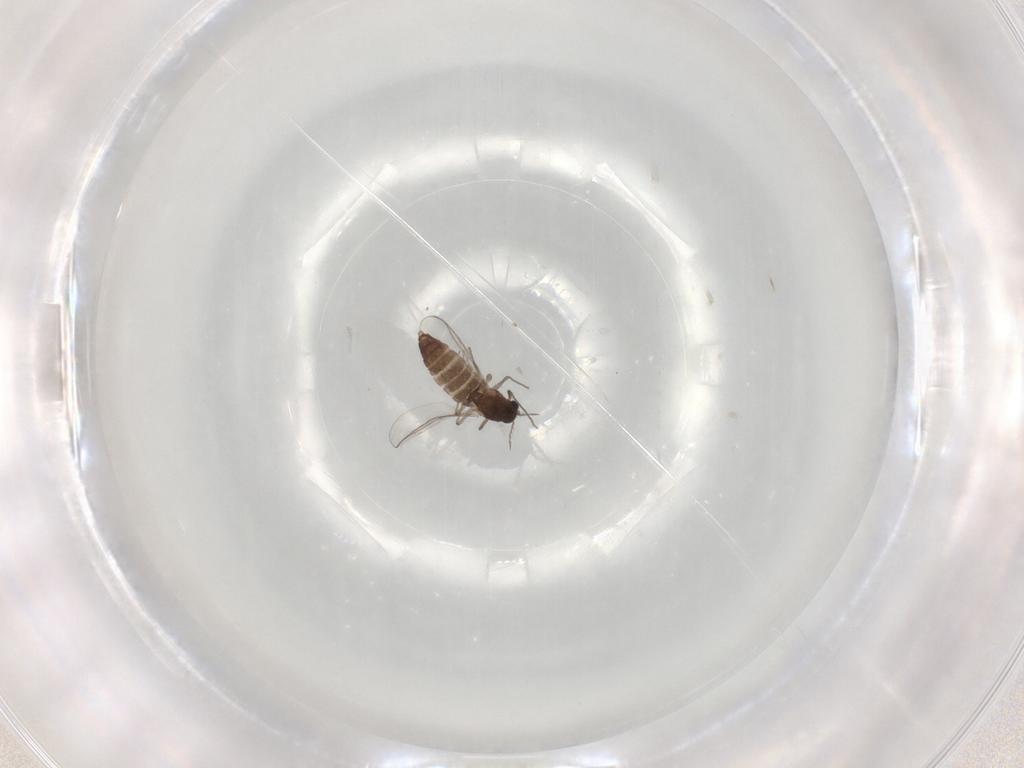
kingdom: Animalia
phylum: Arthropoda
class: Insecta
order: Diptera
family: Chironomidae
